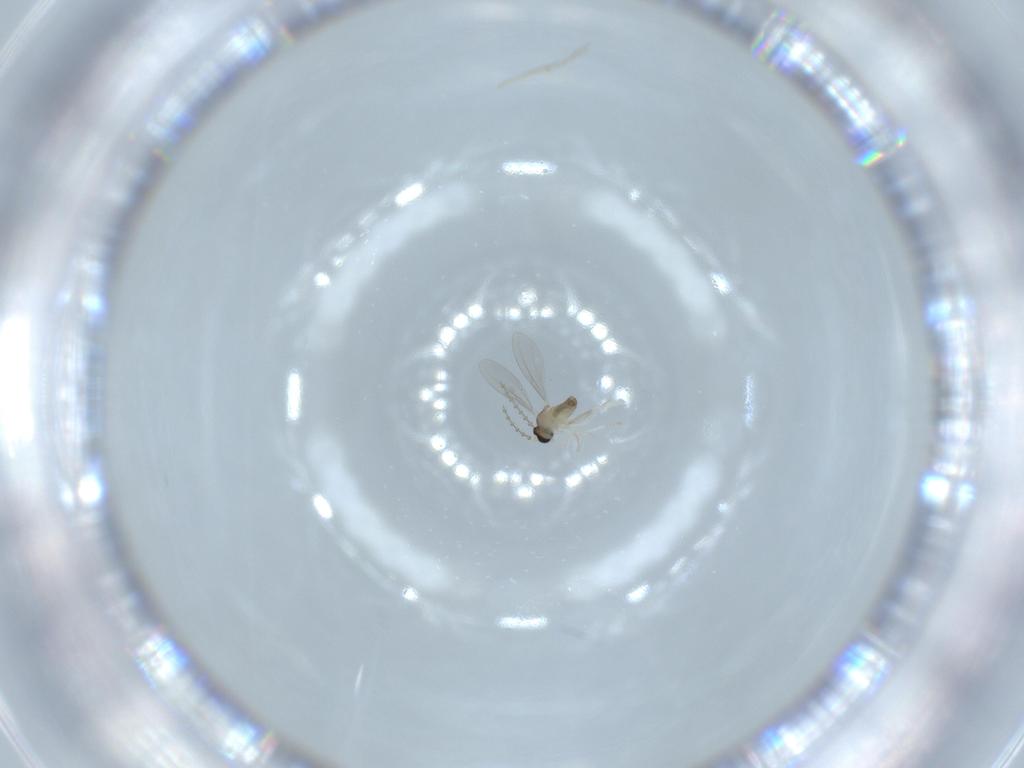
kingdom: Animalia
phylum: Arthropoda
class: Insecta
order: Diptera
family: Cecidomyiidae
